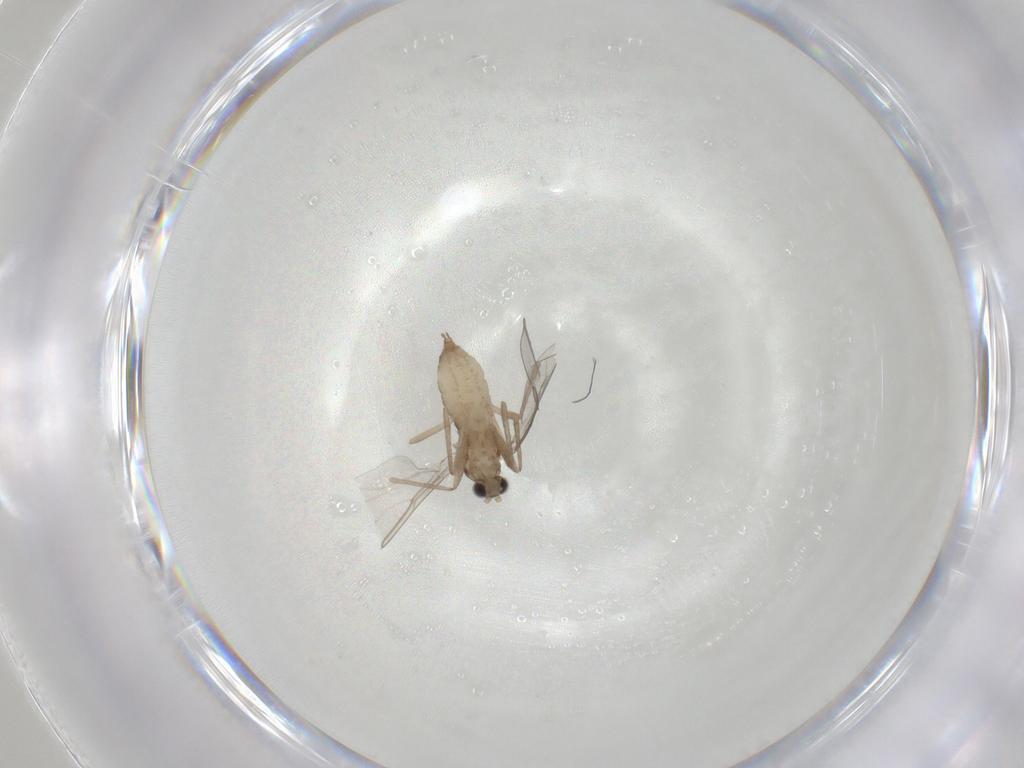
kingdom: Animalia
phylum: Arthropoda
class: Insecta
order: Diptera
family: Cecidomyiidae
